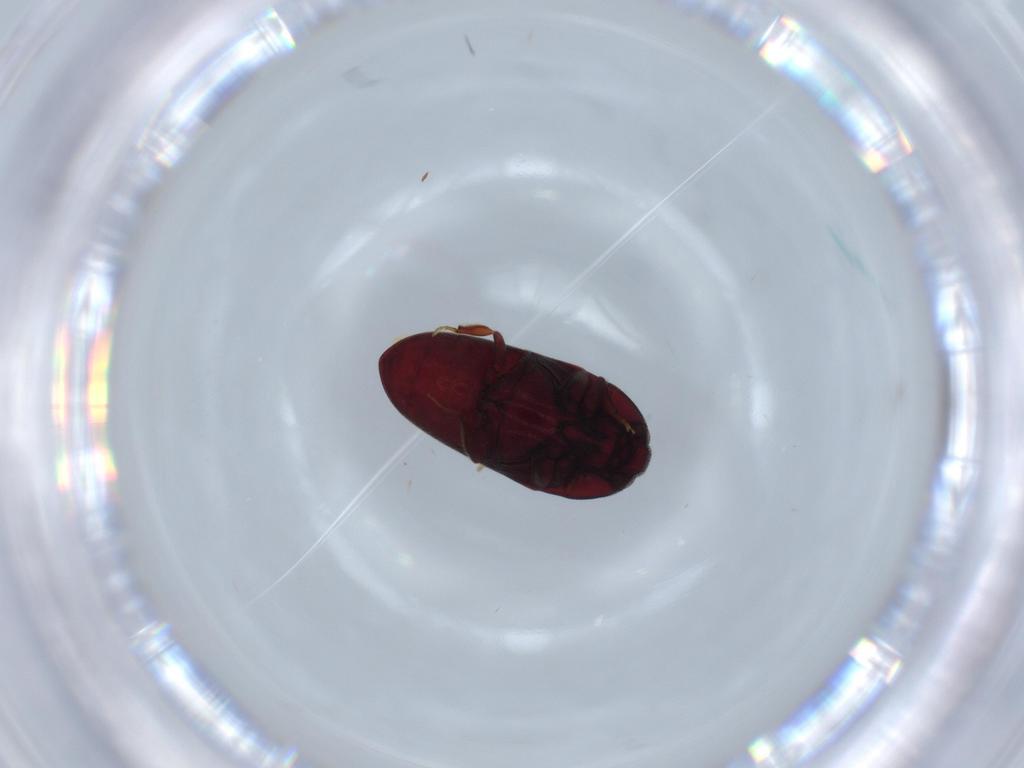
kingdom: Animalia
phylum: Arthropoda
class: Insecta
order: Coleoptera
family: Throscidae
